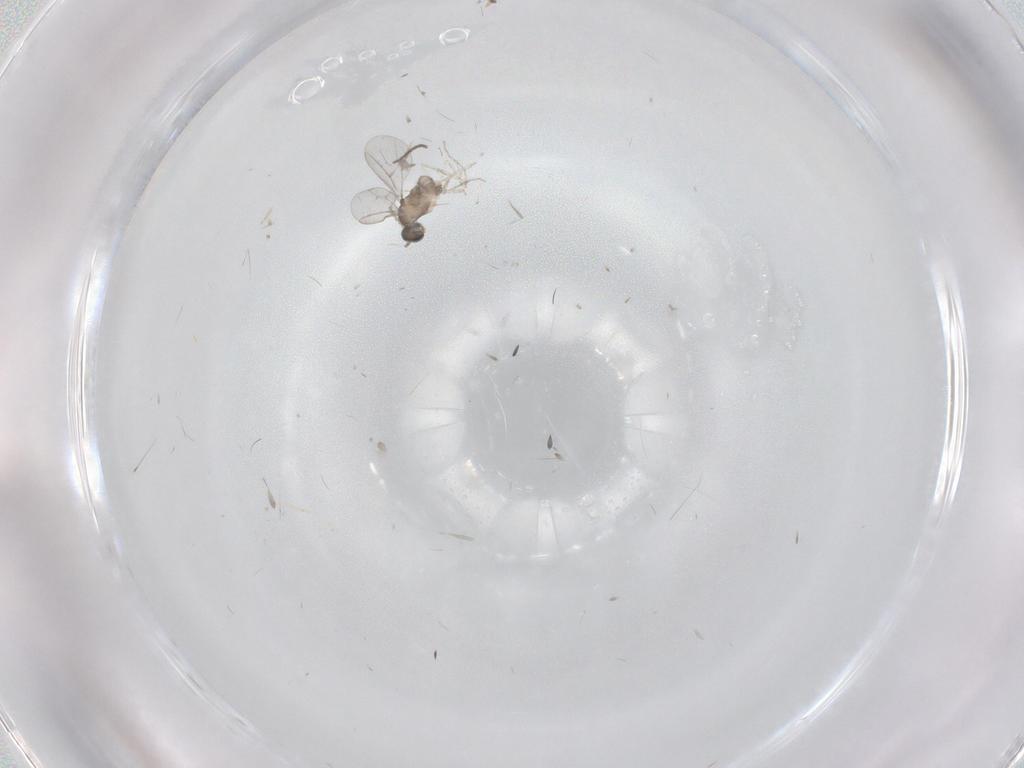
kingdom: Animalia
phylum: Arthropoda
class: Insecta
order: Diptera
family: Cecidomyiidae
